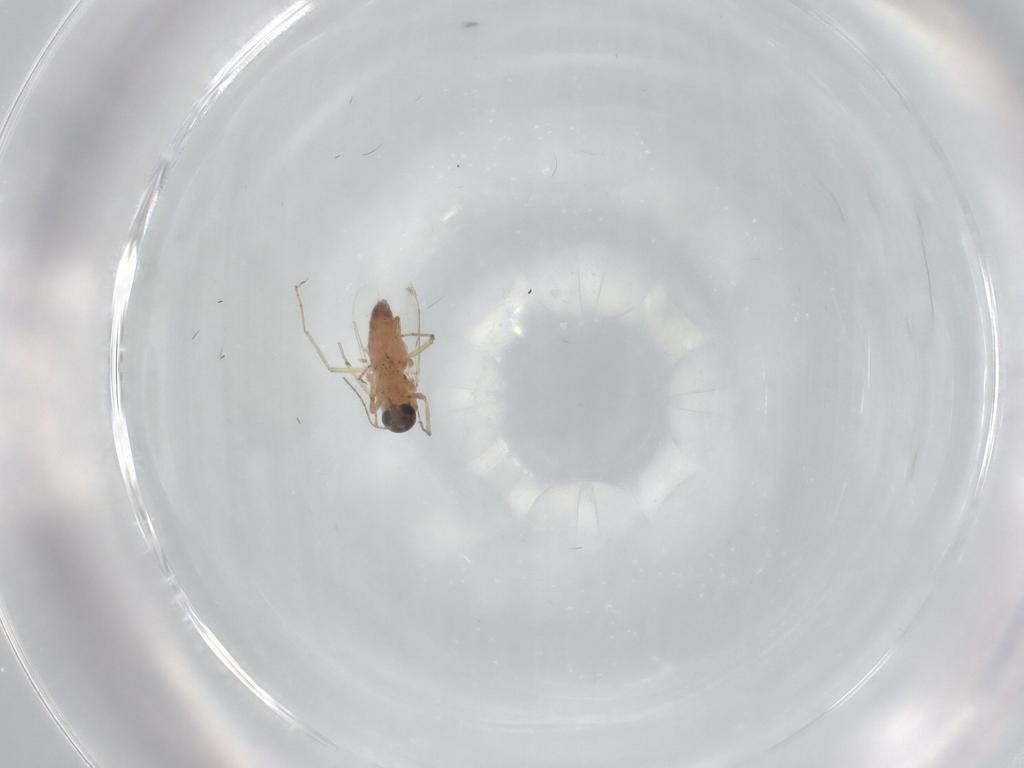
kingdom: Animalia
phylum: Arthropoda
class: Insecta
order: Diptera
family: Ceratopogonidae
